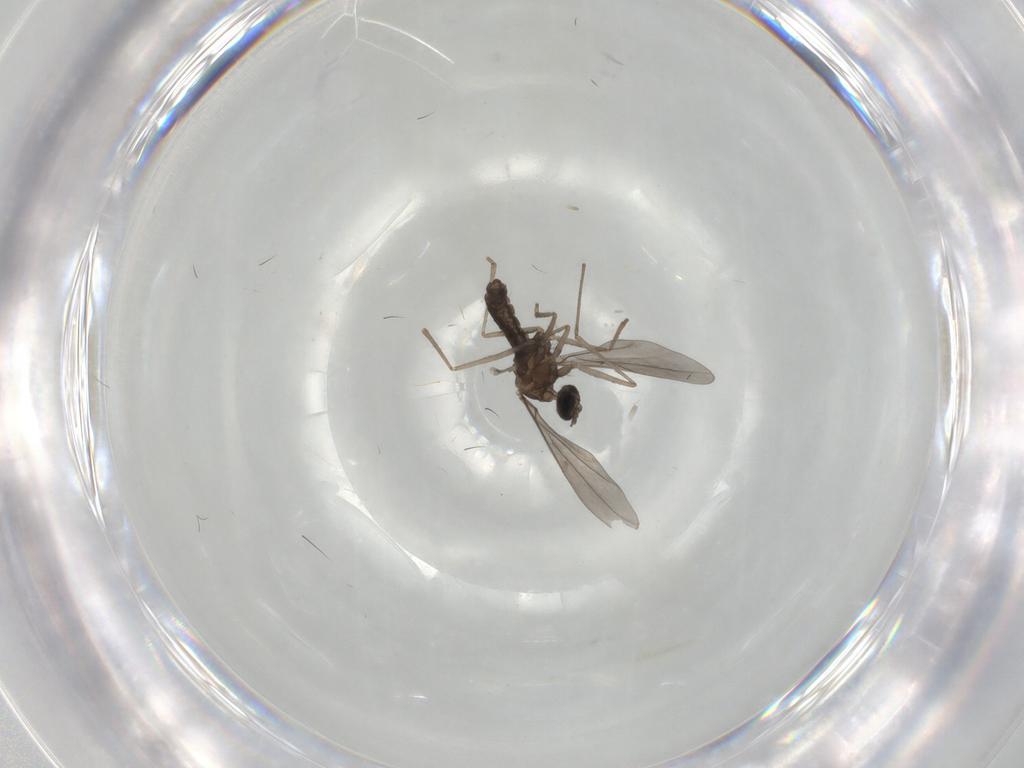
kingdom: Animalia
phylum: Arthropoda
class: Insecta
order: Diptera
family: Cecidomyiidae
